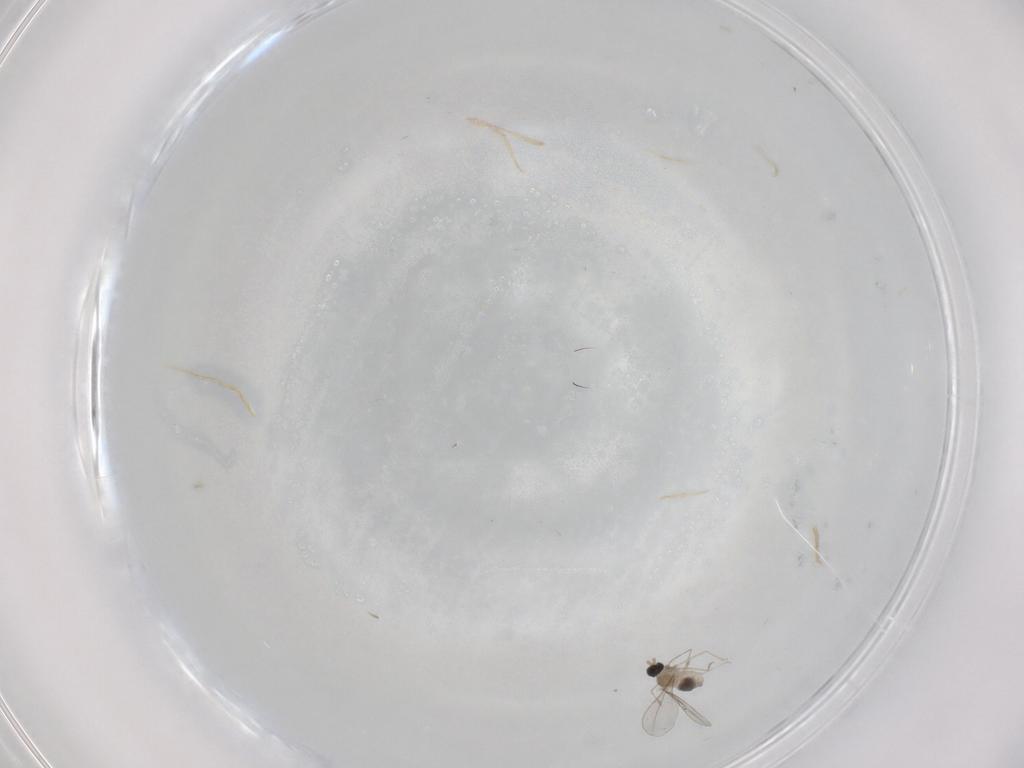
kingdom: Animalia
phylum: Arthropoda
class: Insecta
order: Diptera
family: Cecidomyiidae
